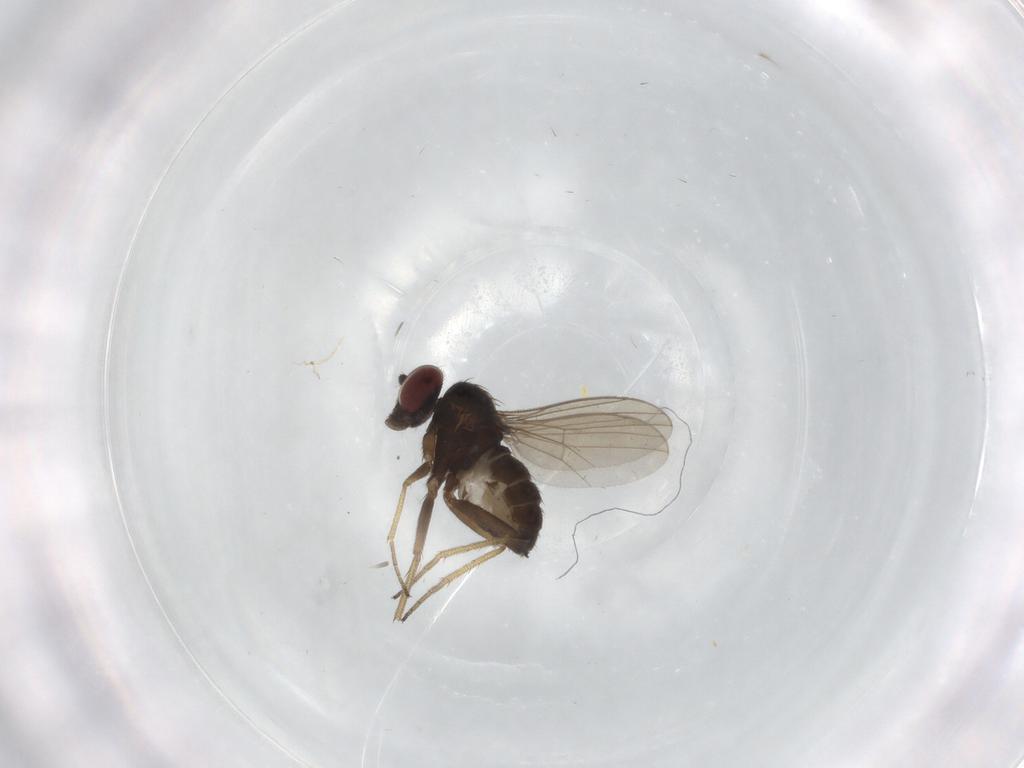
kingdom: Animalia
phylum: Arthropoda
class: Insecta
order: Diptera
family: Dolichopodidae
